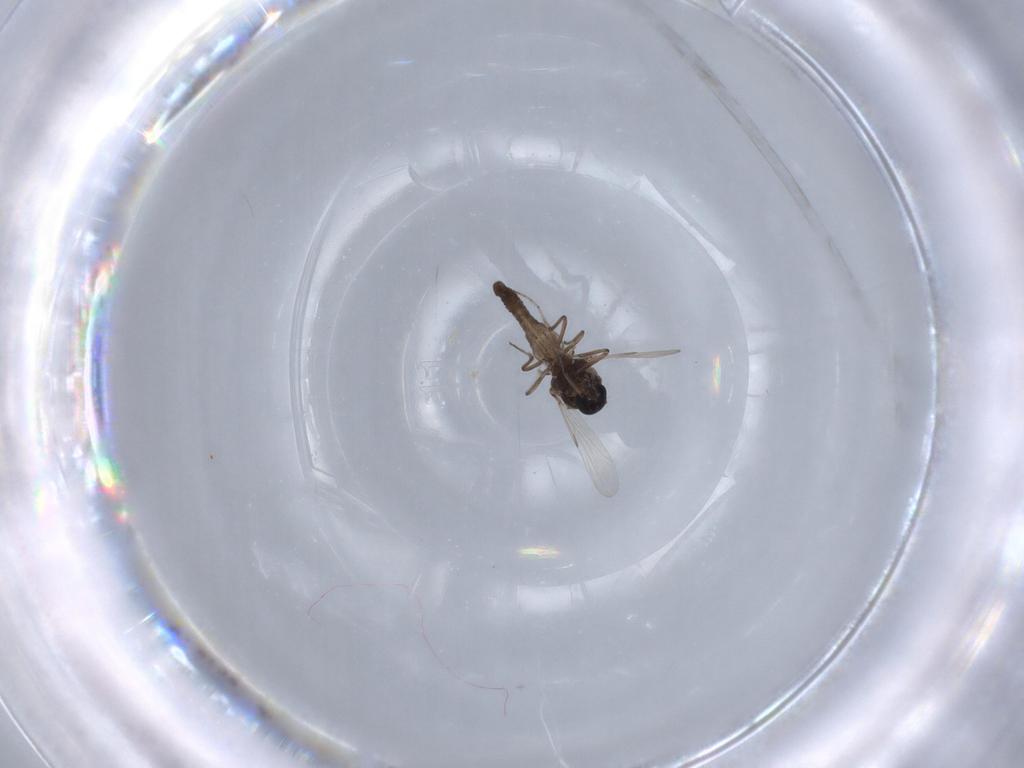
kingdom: Animalia
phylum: Arthropoda
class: Insecta
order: Diptera
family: Ceratopogonidae
